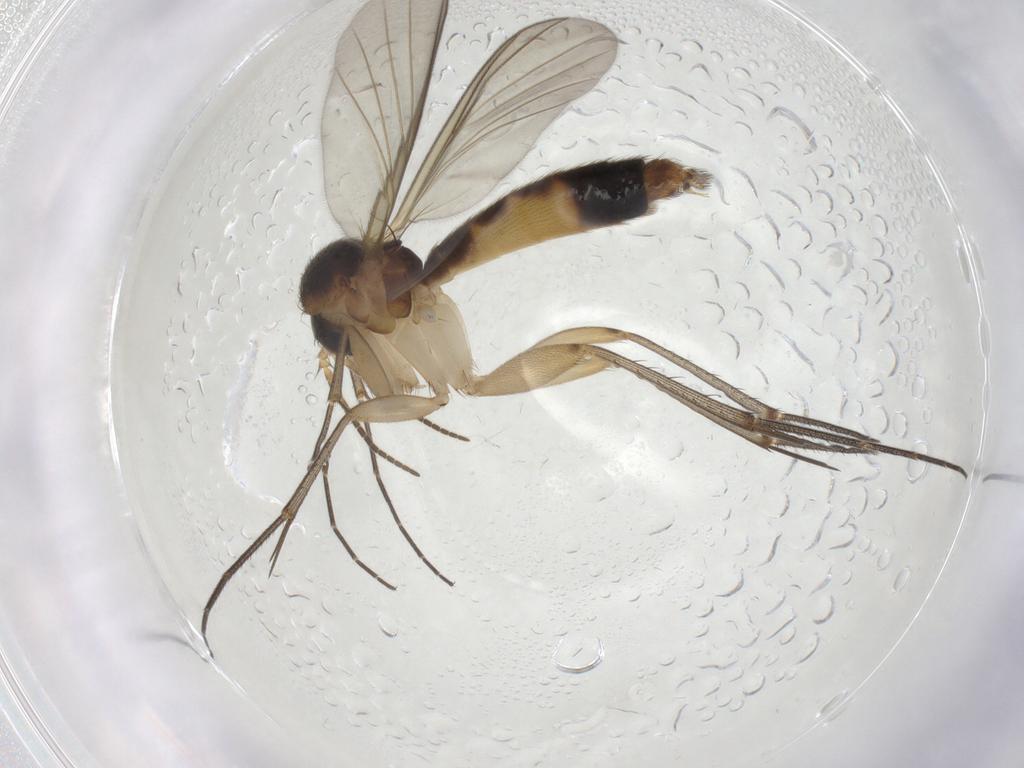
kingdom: Animalia
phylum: Arthropoda
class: Insecta
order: Diptera
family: Mycetophilidae
